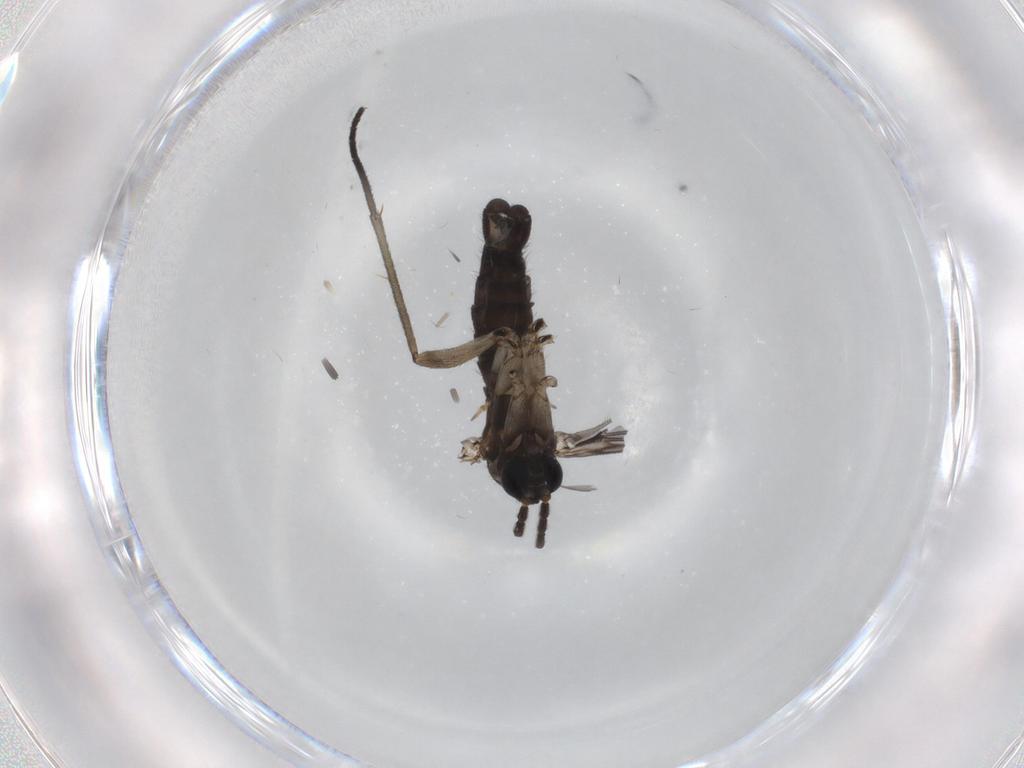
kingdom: Animalia
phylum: Arthropoda
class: Insecta
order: Diptera
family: Sciaridae
